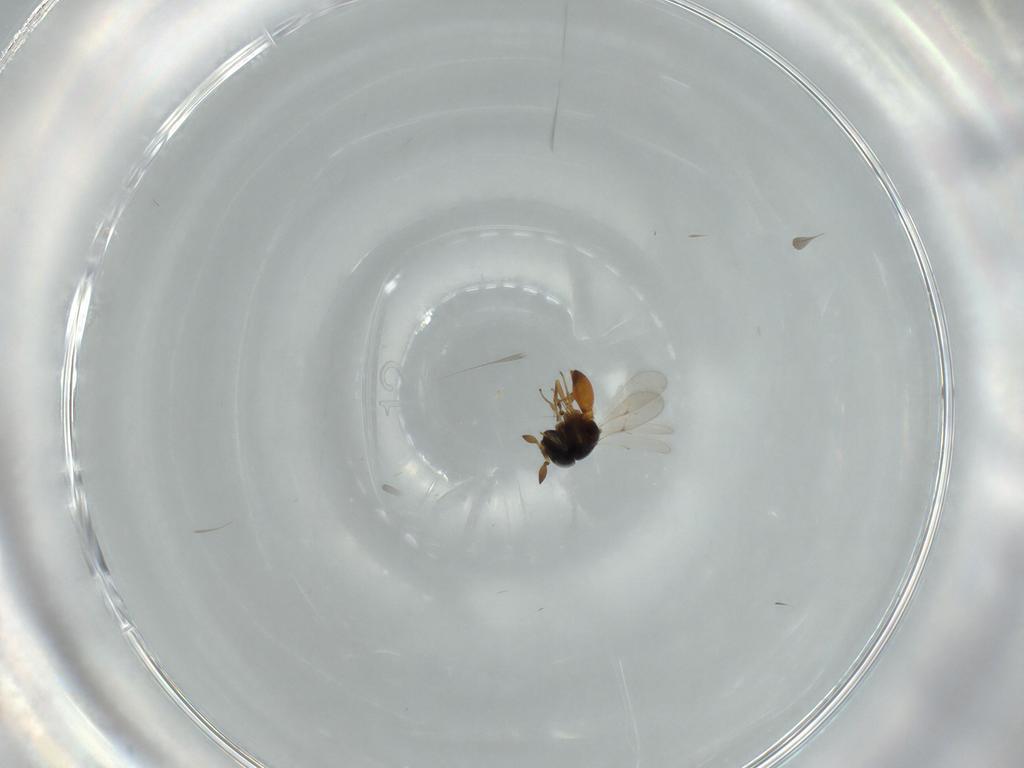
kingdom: Animalia
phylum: Arthropoda
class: Insecta
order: Hymenoptera
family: Scelionidae
